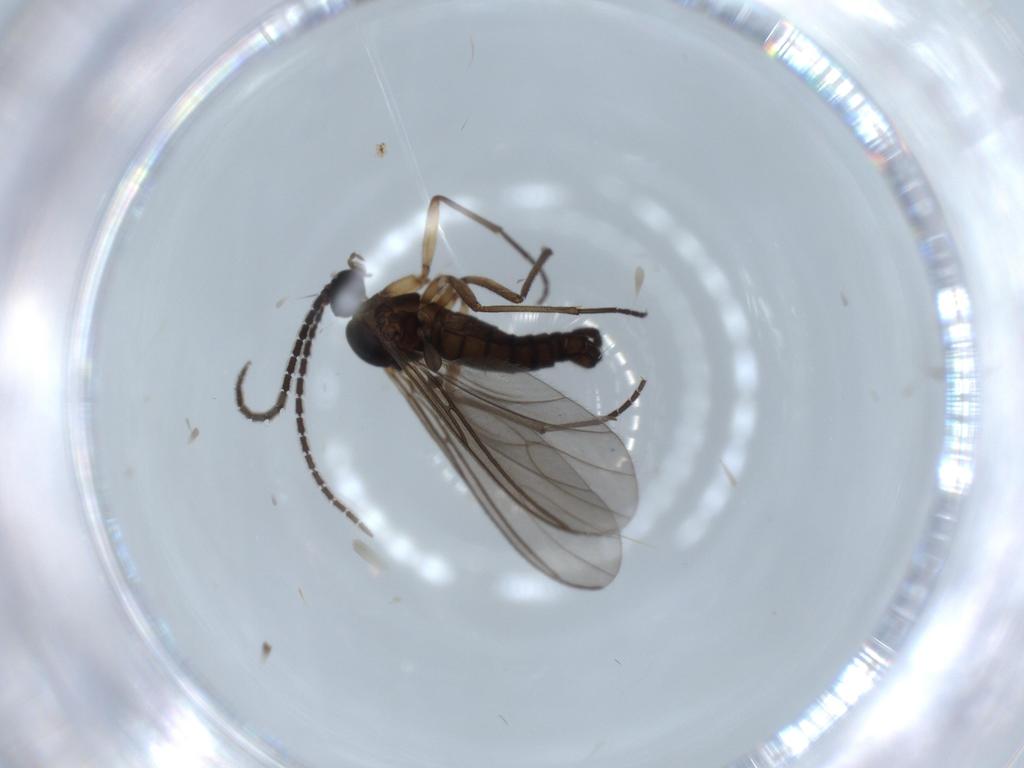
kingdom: Animalia
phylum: Arthropoda
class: Insecta
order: Diptera
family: Sciaridae
